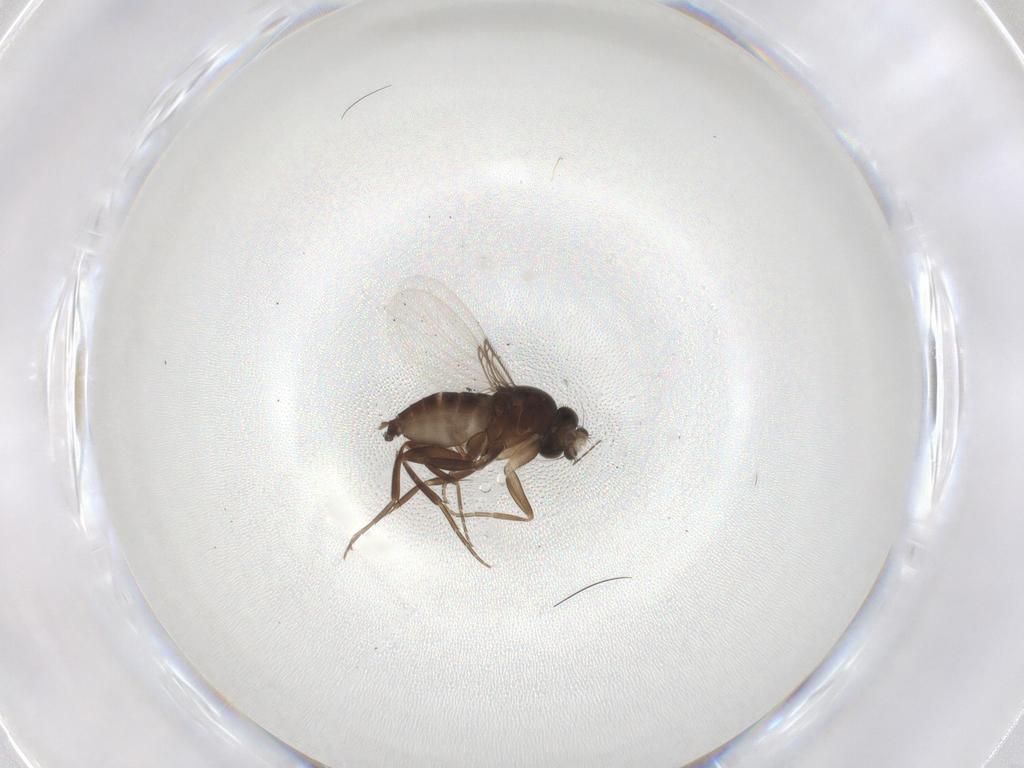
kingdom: Animalia
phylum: Arthropoda
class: Insecta
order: Diptera
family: Phoridae
